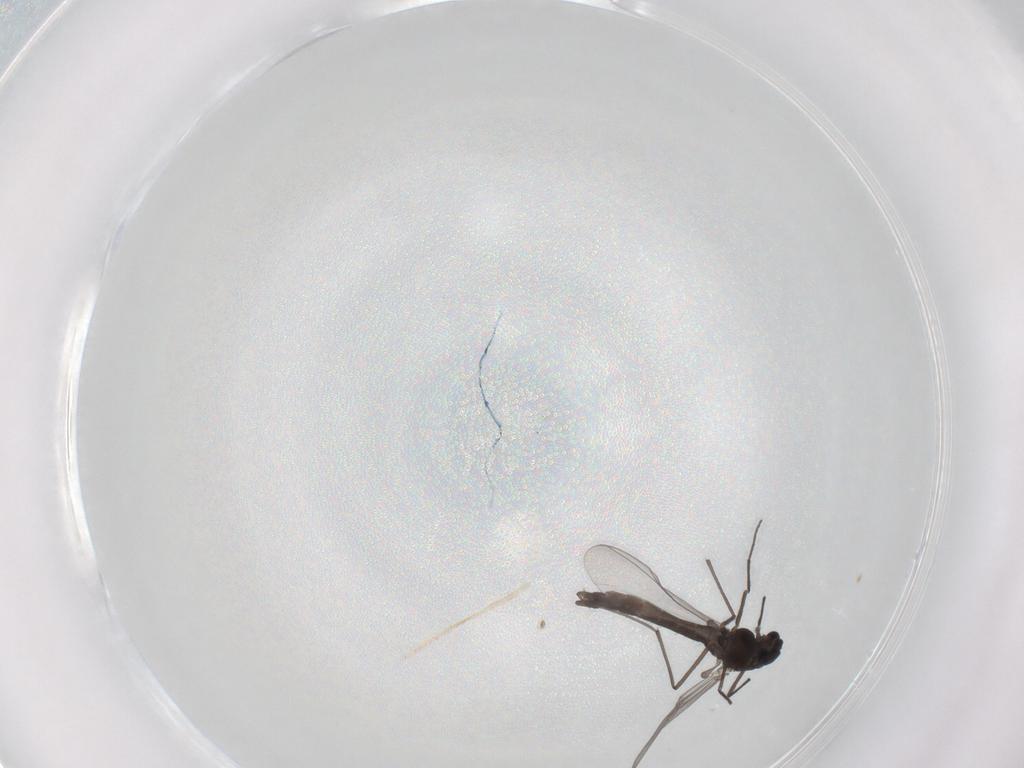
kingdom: Animalia
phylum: Arthropoda
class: Insecta
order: Diptera
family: Chironomidae
